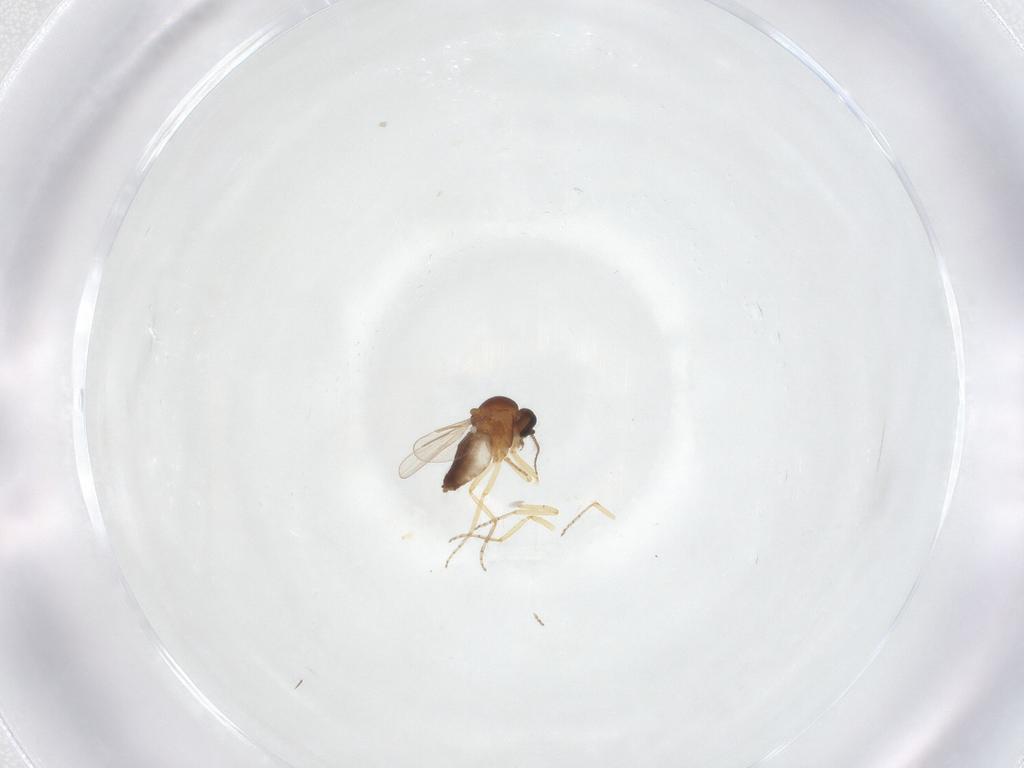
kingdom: Animalia
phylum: Arthropoda
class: Insecta
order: Diptera
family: Ceratopogonidae
